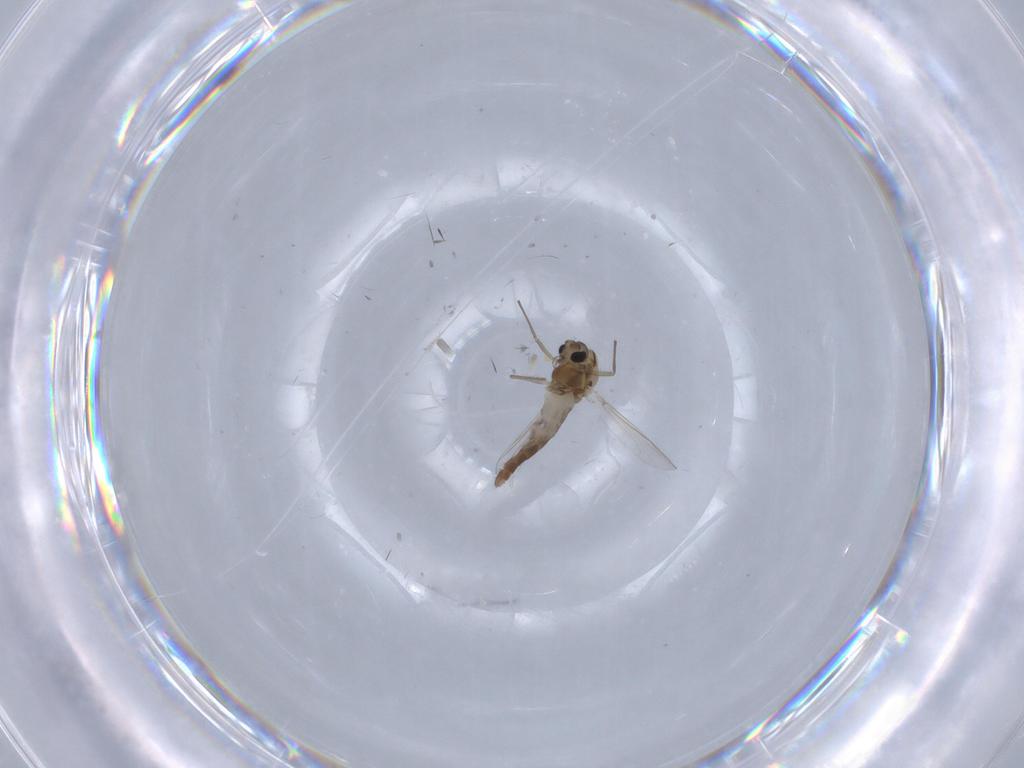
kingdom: Animalia
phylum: Arthropoda
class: Insecta
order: Diptera
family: Chironomidae
